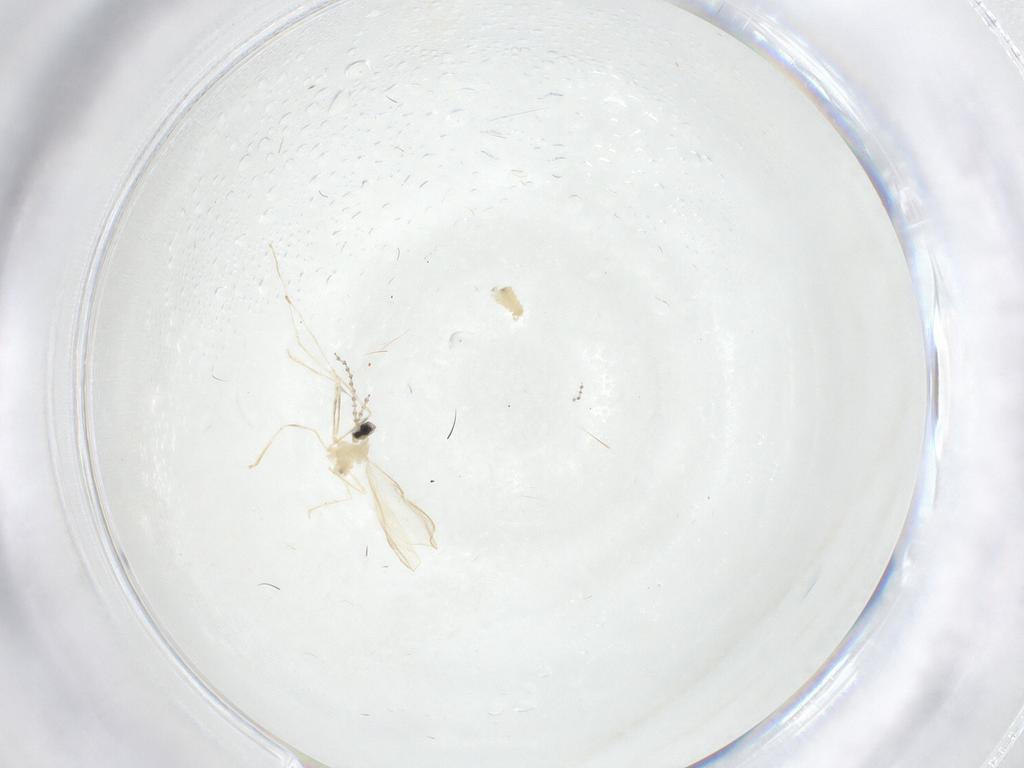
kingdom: Animalia
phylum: Arthropoda
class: Insecta
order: Diptera
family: Cecidomyiidae
